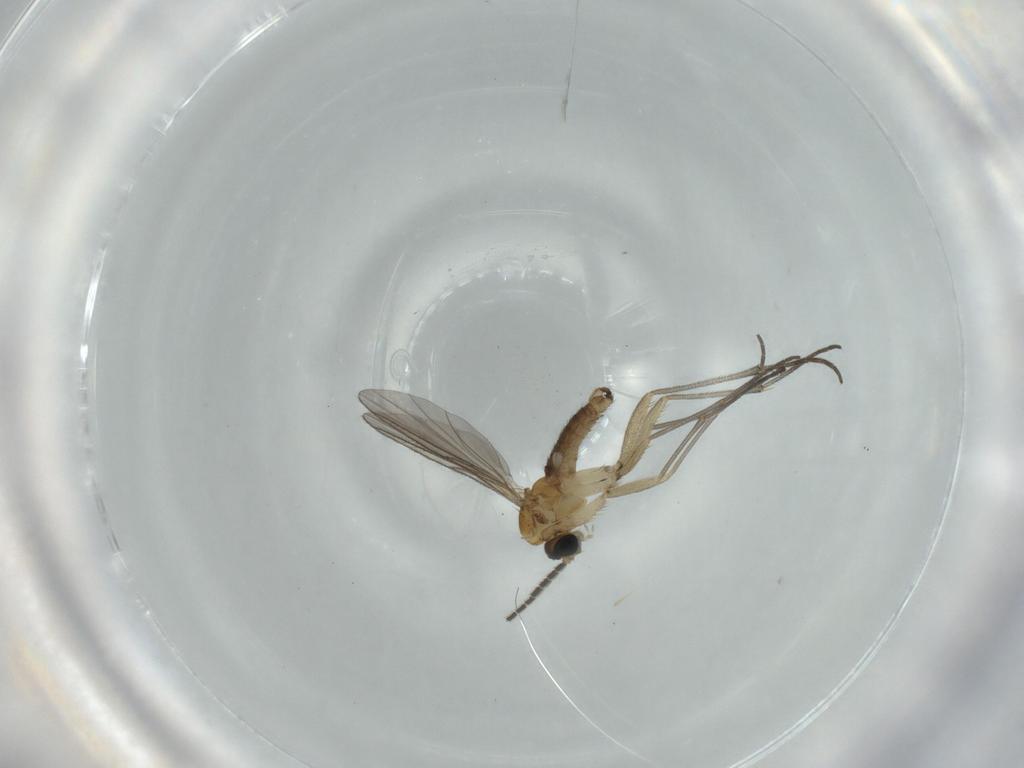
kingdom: Animalia
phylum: Arthropoda
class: Insecta
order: Diptera
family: Sciaridae
